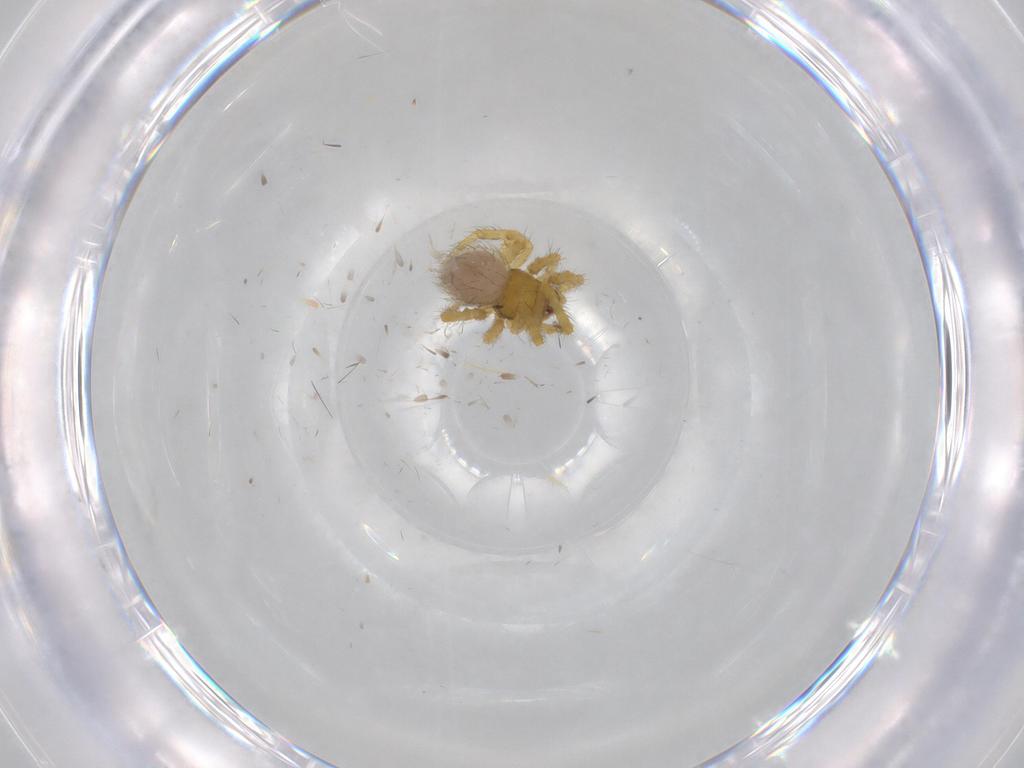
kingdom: Animalia
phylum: Arthropoda
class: Arachnida
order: Araneae
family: Theridiidae
